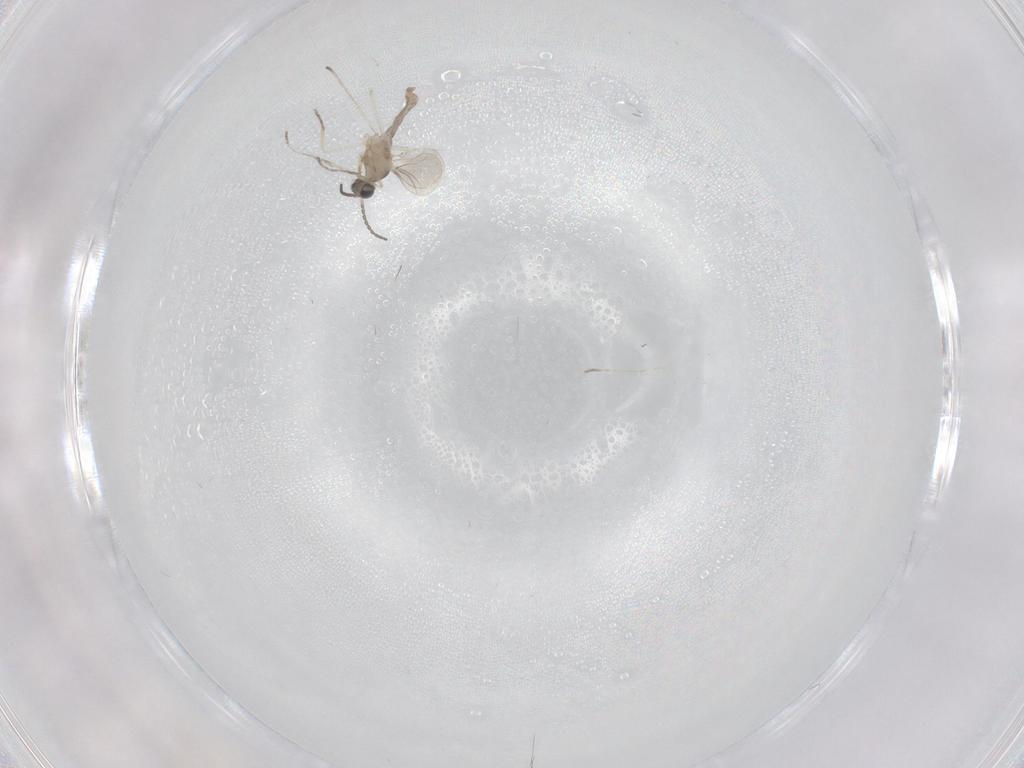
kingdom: Animalia
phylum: Arthropoda
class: Insecta
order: Diptera
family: Cecidomyiidae
